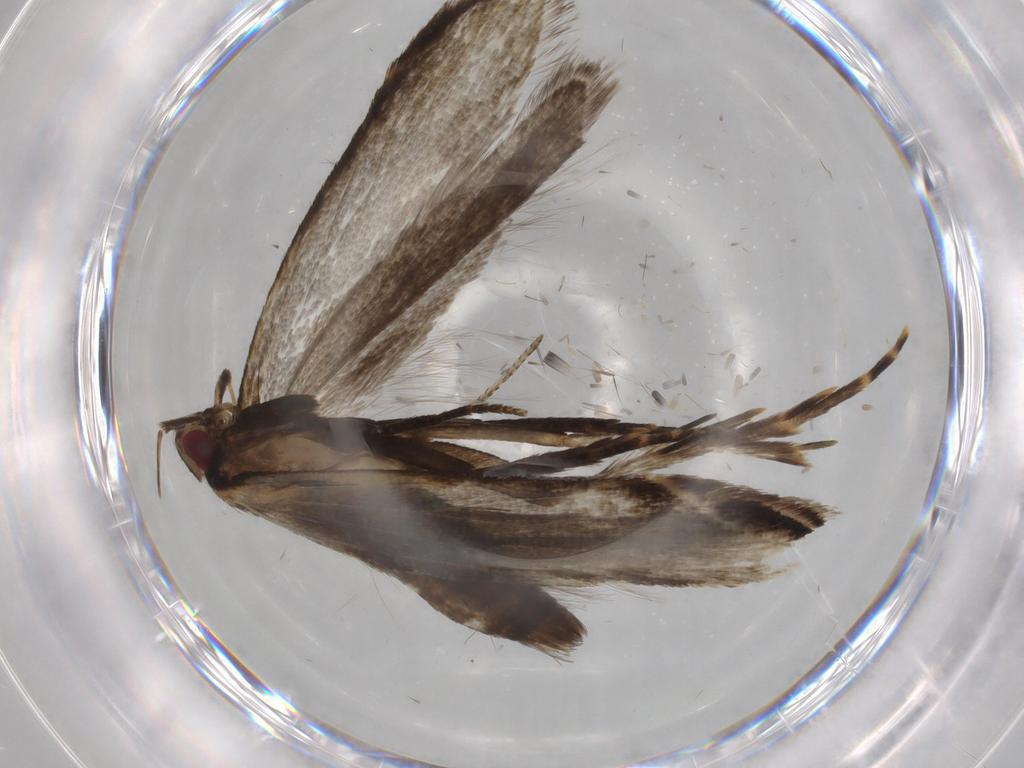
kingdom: Animalia
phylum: Arthropoda
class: Insecta
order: Lepidoptera
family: Gelechiidae
